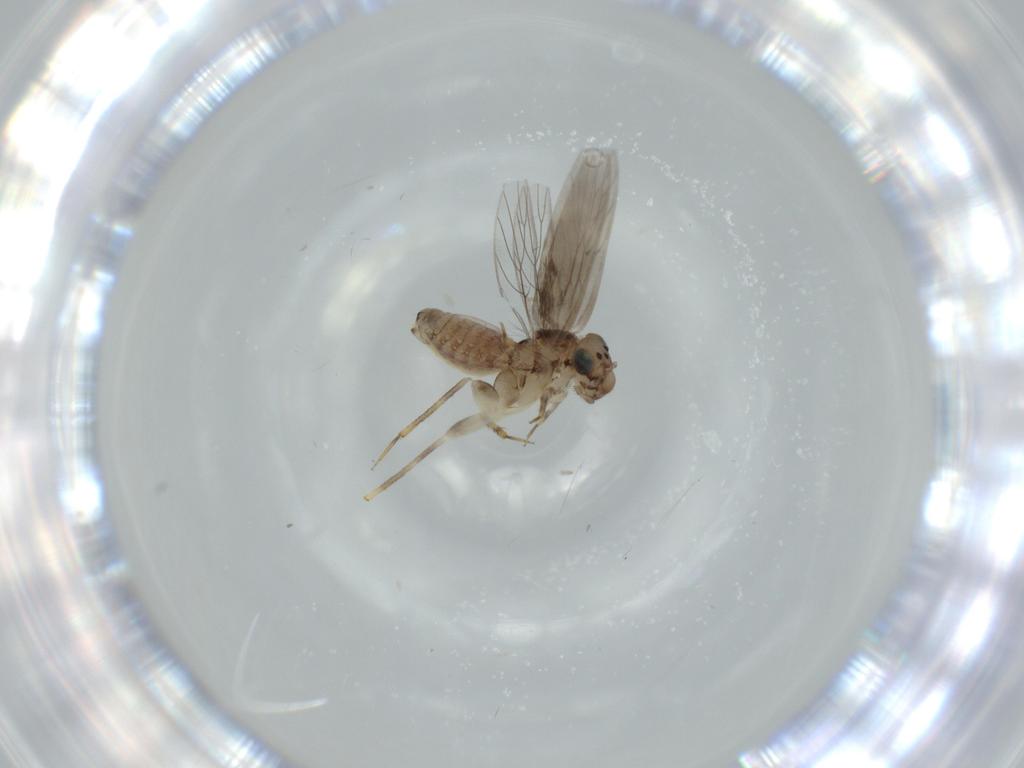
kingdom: Animalia
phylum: Arthropoda
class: Insecta
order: Psocodea
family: Lepidopsocidae
